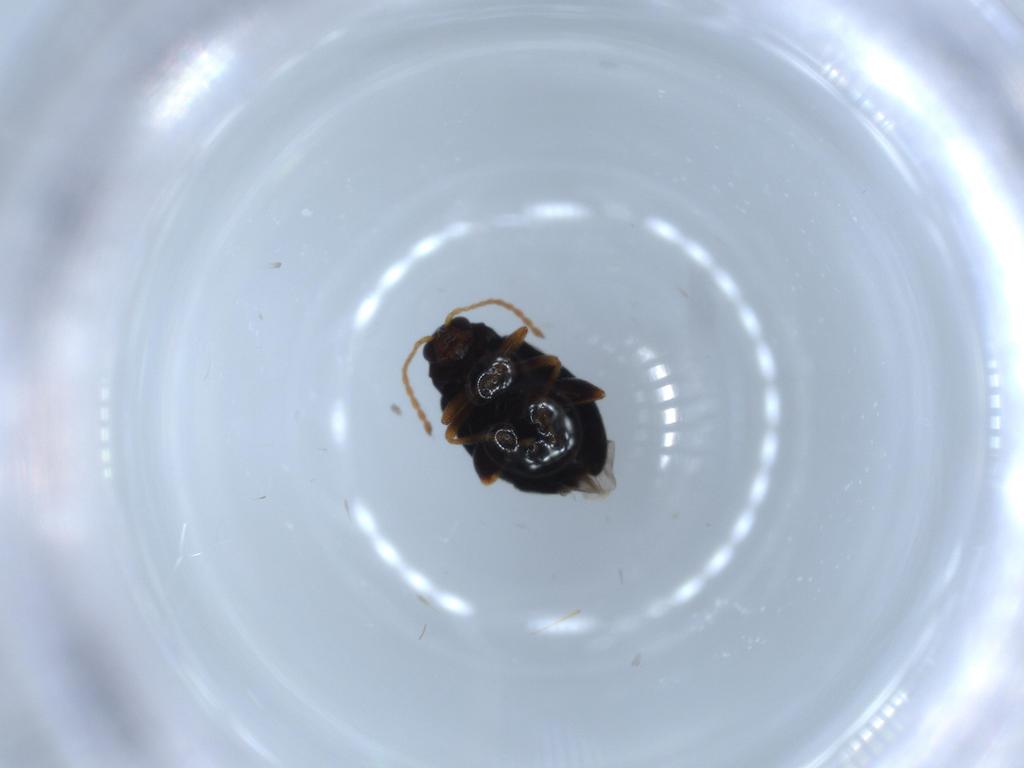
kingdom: Animalia
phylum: Arthropoda
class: Insecta
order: Coleoptera
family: Chrysomelidae
